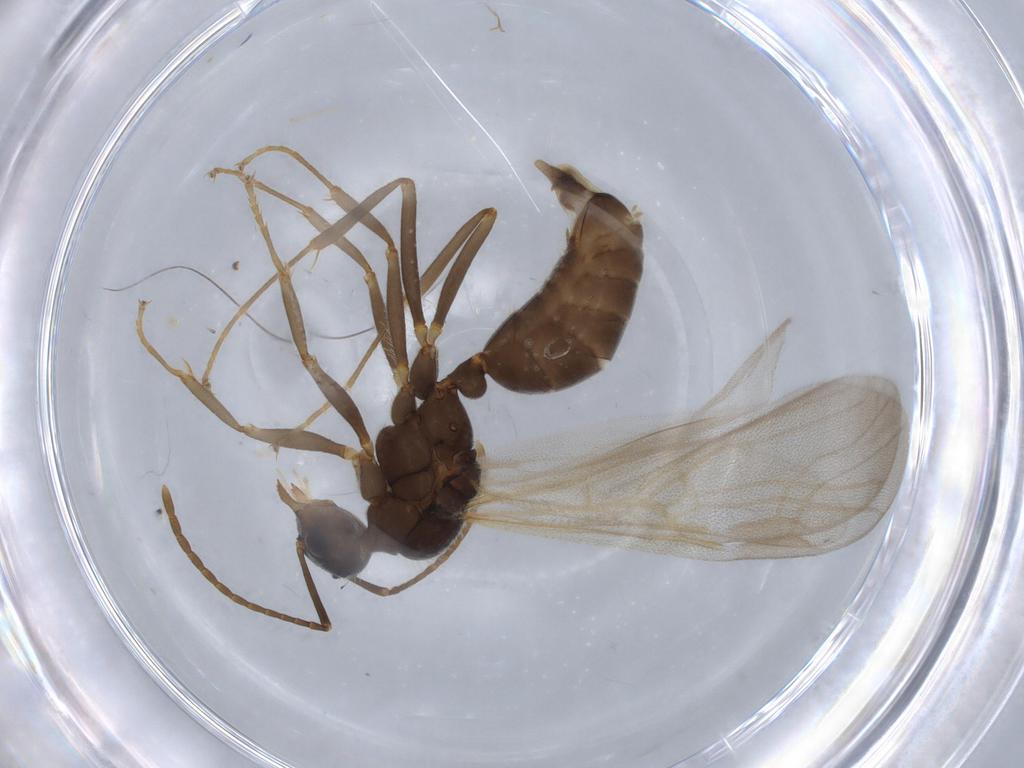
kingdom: Animalia
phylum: Arthropoda
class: Insecta
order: Hymenoptera
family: Formicidae
